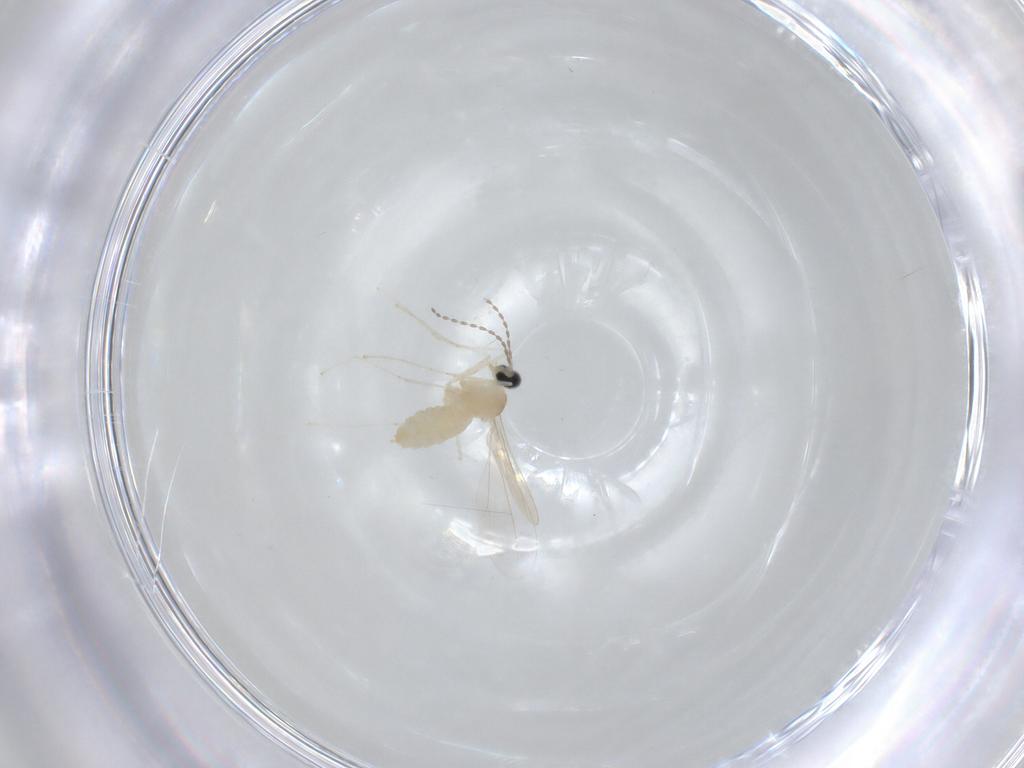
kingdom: Animalia
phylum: Arthropoda
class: Insecta
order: Diptera
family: Cecidomyiidae
